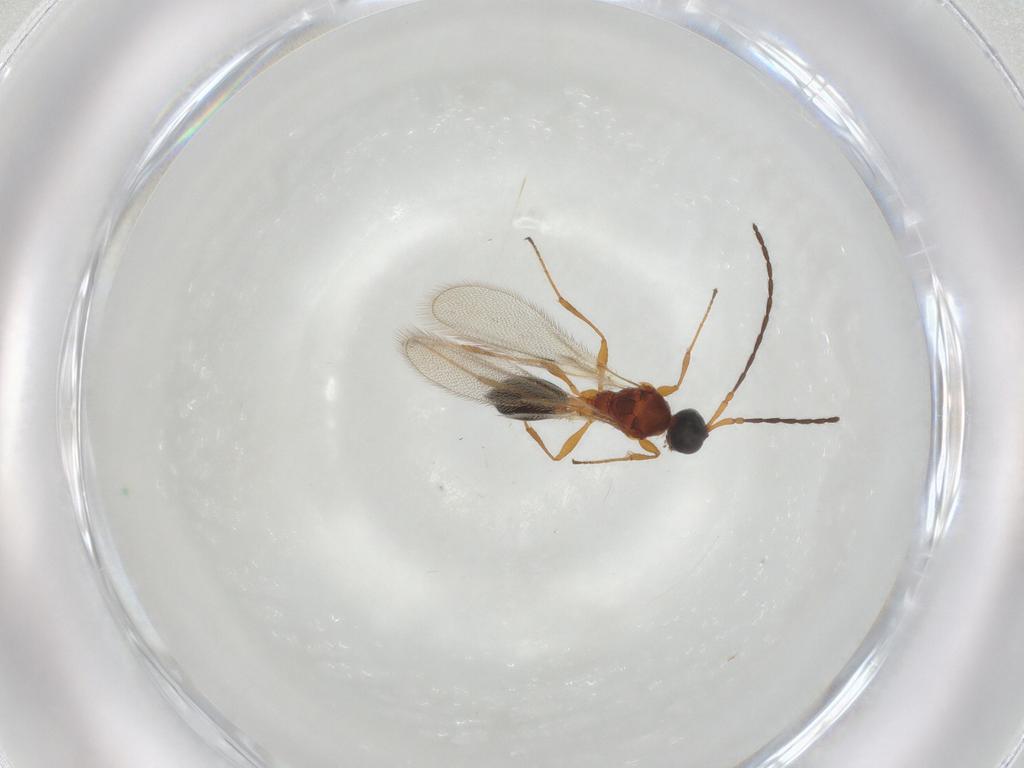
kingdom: Animalia
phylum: Arthropoda
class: Insecta
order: Hymenoptera
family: Diapriidae
